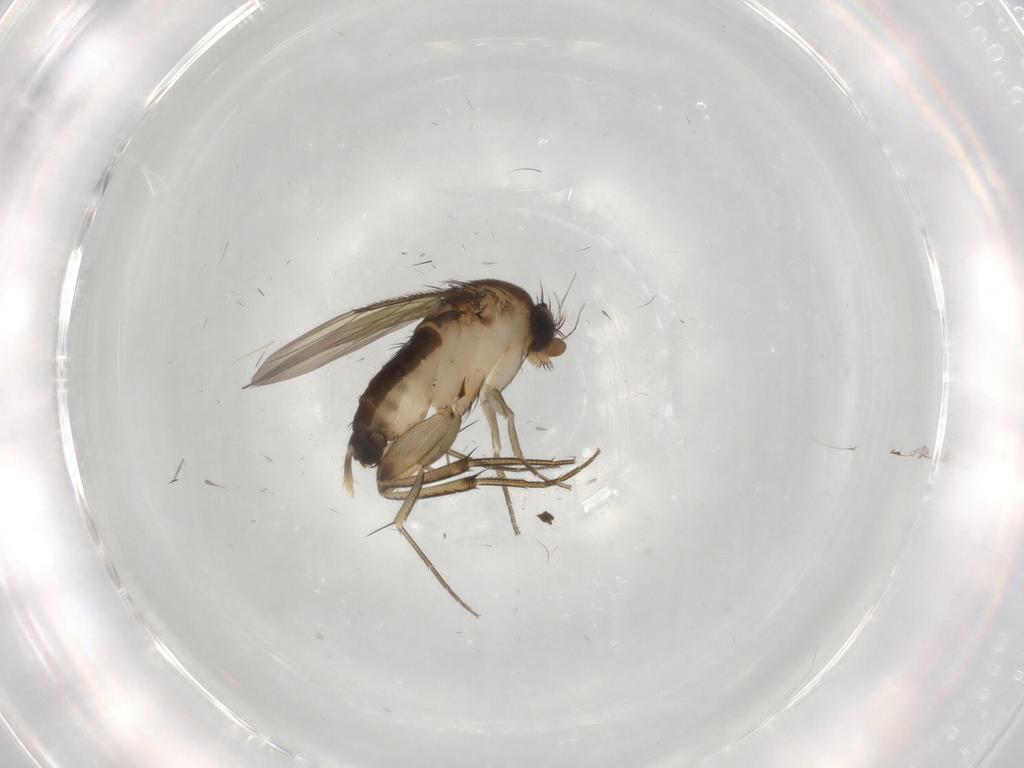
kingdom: Animalia
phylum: Arthropoda
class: Insecta
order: Diptera
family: Phoridae
